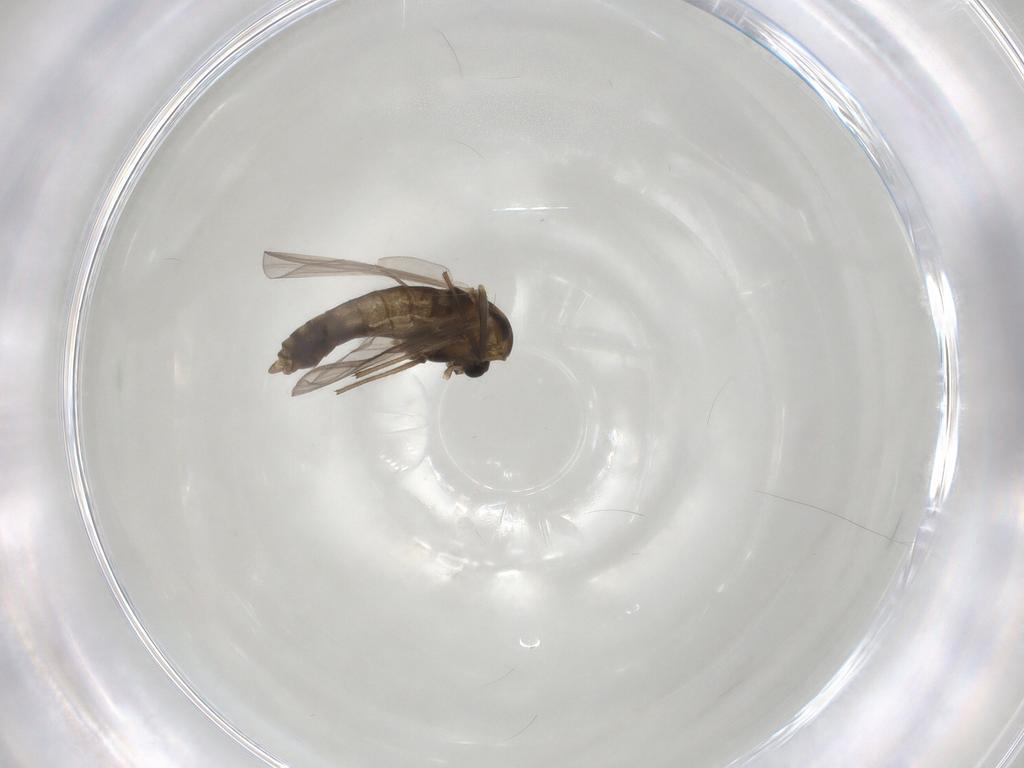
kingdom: Animalia
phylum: Arthropoda
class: Insecta
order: Diptera
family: Chironomidae
